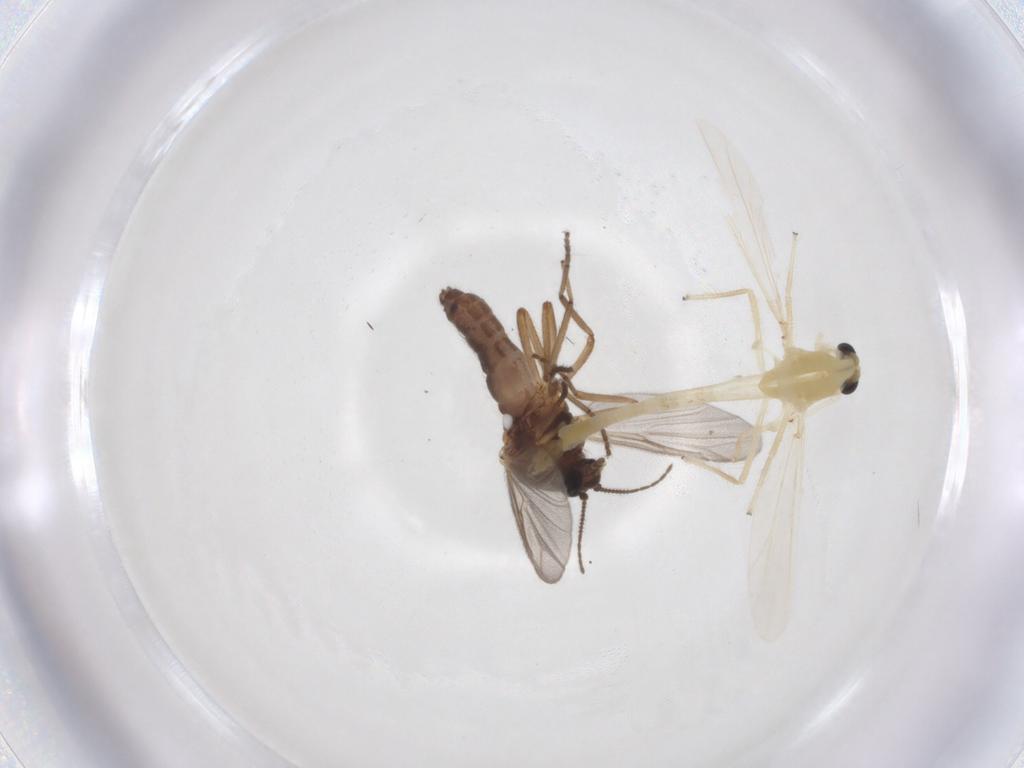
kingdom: Animalia
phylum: Arthropoda
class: Insecta
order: Diptera
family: Ceratopogonidae
